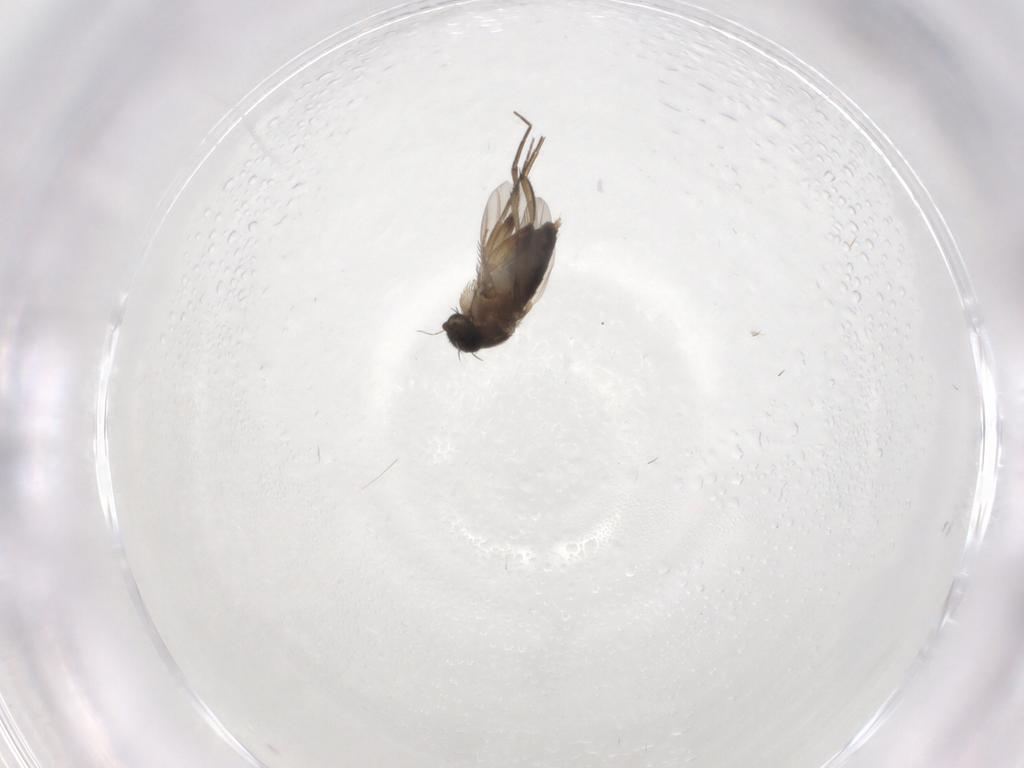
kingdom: Animalia
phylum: Arthropoda
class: Insecta
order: Diptera
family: Phoridae
